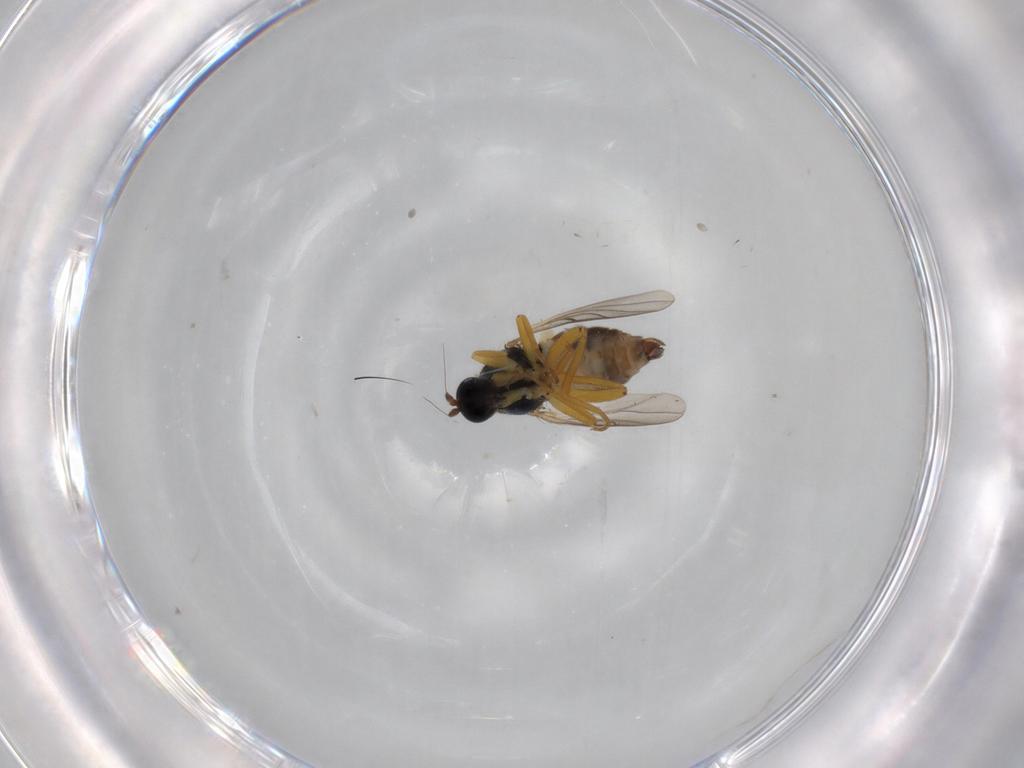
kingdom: Animalia
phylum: Arthropoda
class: Insecta
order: Diptera
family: Hybotidae
